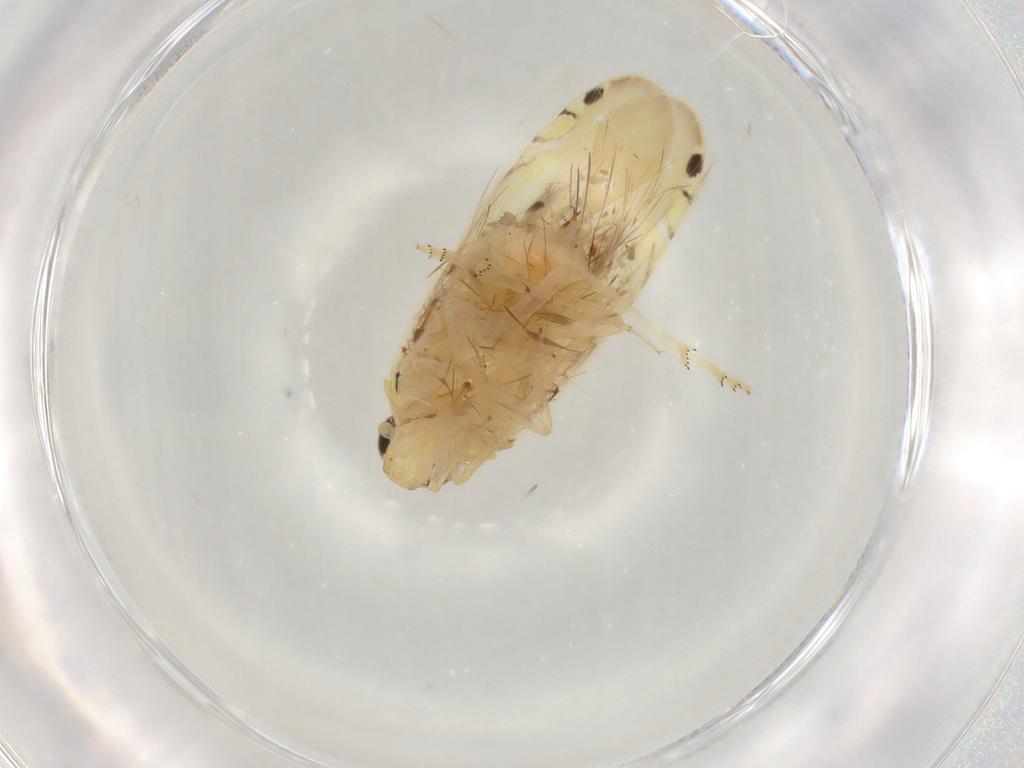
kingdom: Animalia
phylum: Arthropoda
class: Insecta
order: Hemiptera
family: Achilidae
